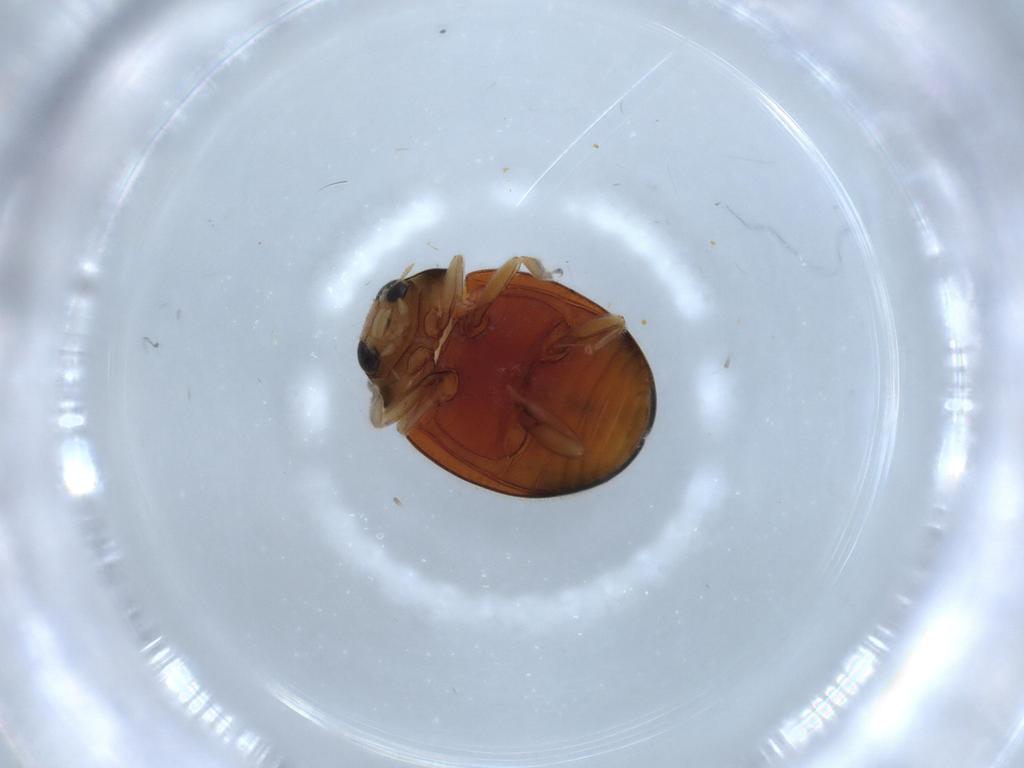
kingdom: Animalia
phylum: Arthropoda
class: Insecta
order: Coleoptera
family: Coccinellidae
